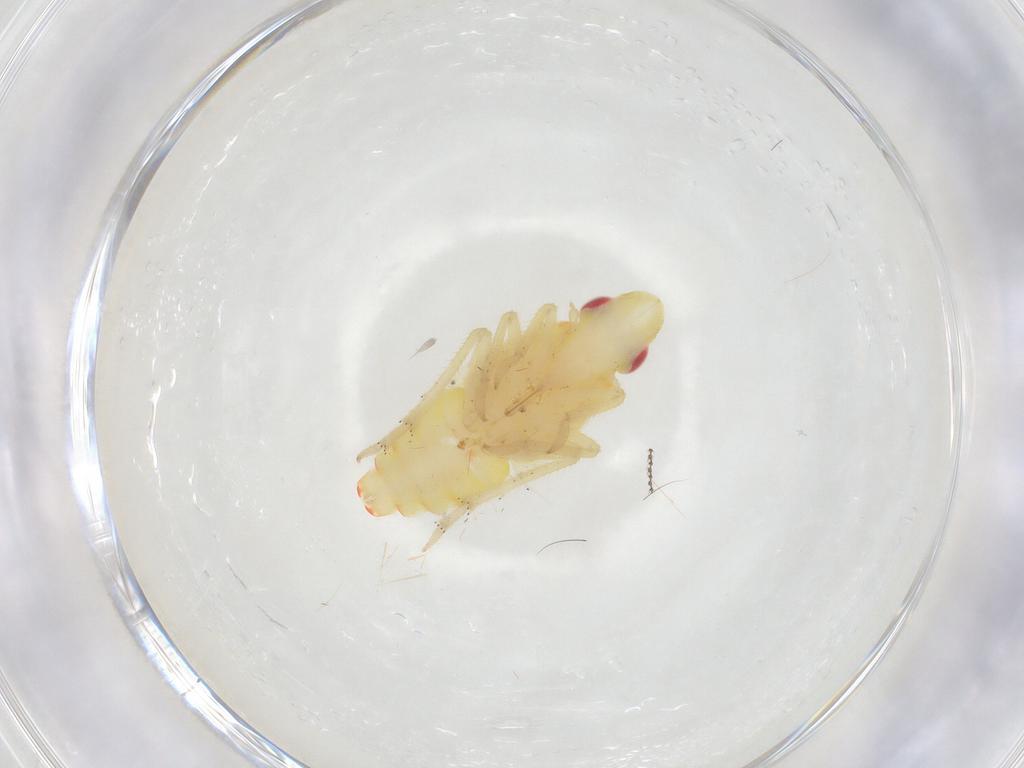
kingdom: Animalia
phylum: Arthropoda
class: Insecta
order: Hemiptera
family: Tropiduchidae
